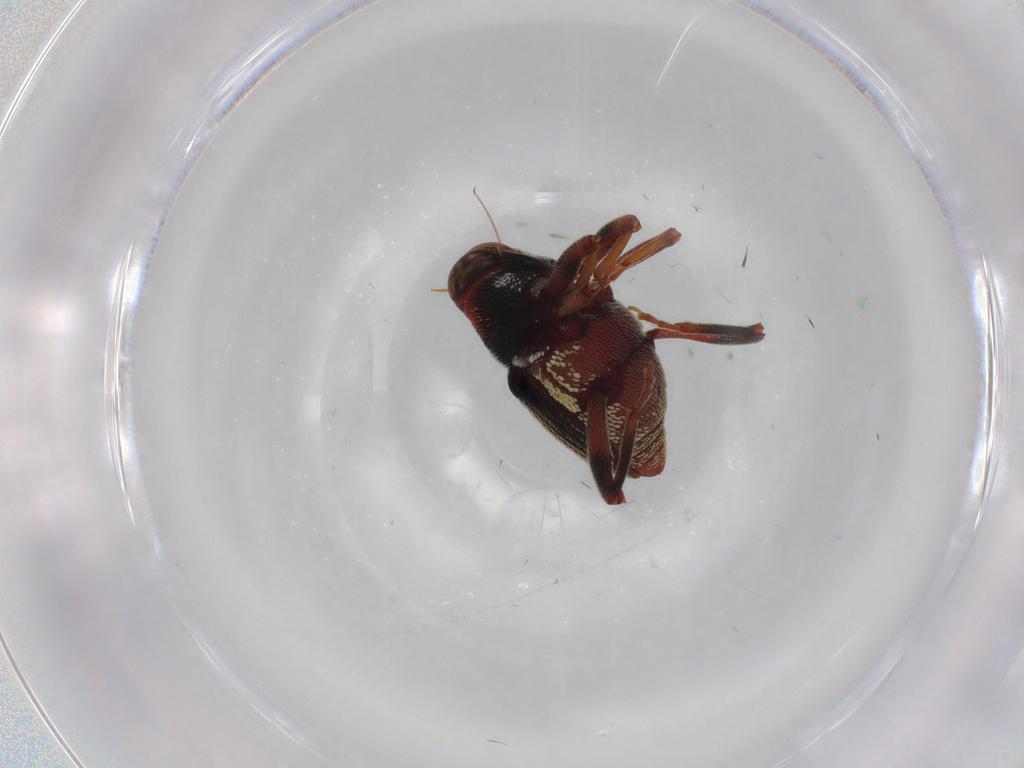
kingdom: Animalia
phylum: Arthropoda
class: Insecta
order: Coleoptera
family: Curculionidae
